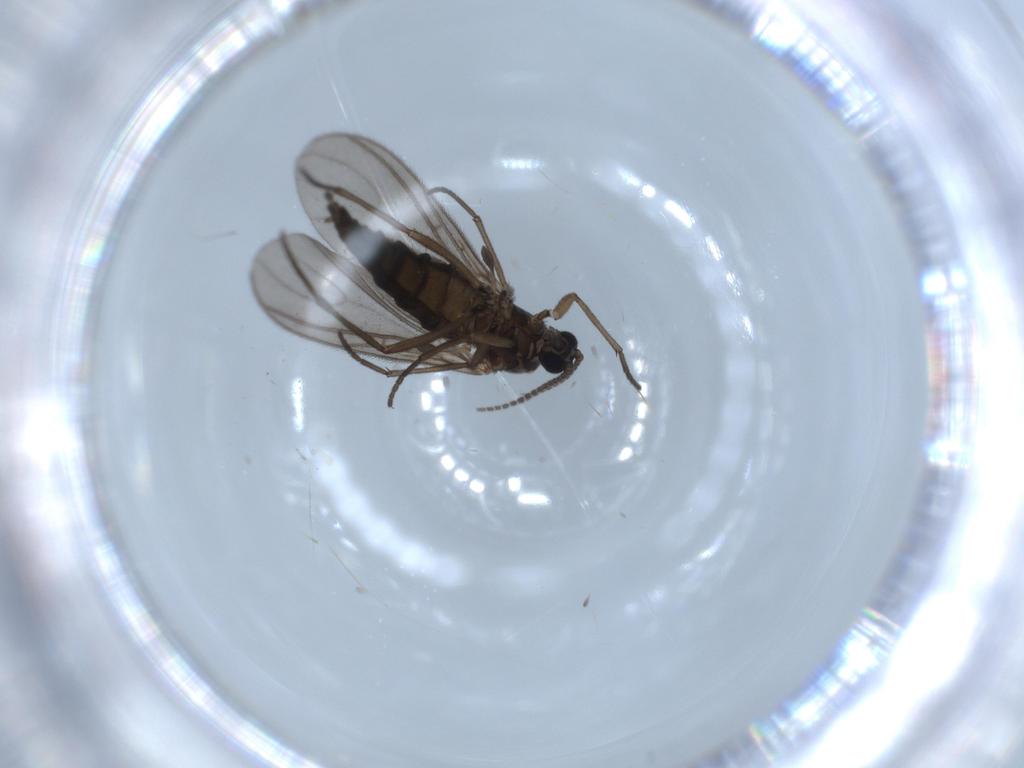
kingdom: Animalia
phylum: Arthropoda
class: Insecta
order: Diptera
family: Sciaridae
